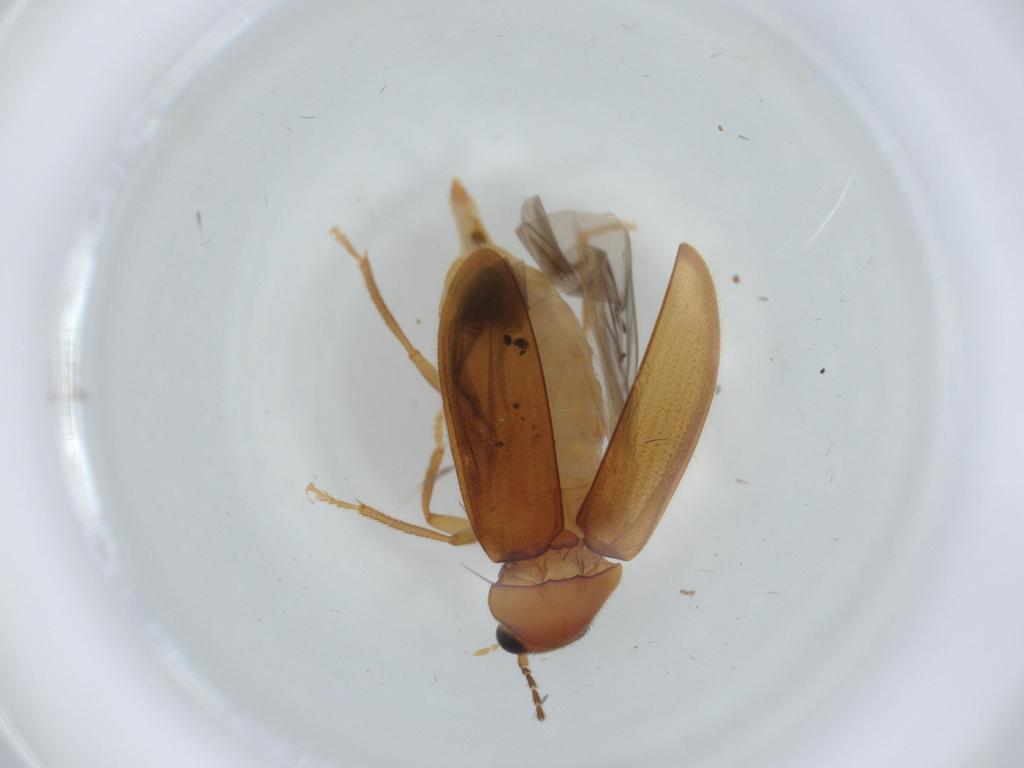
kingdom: Animalia
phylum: Arthropoda
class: Insecta
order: Coleoptera
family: Ptilodactylidae
